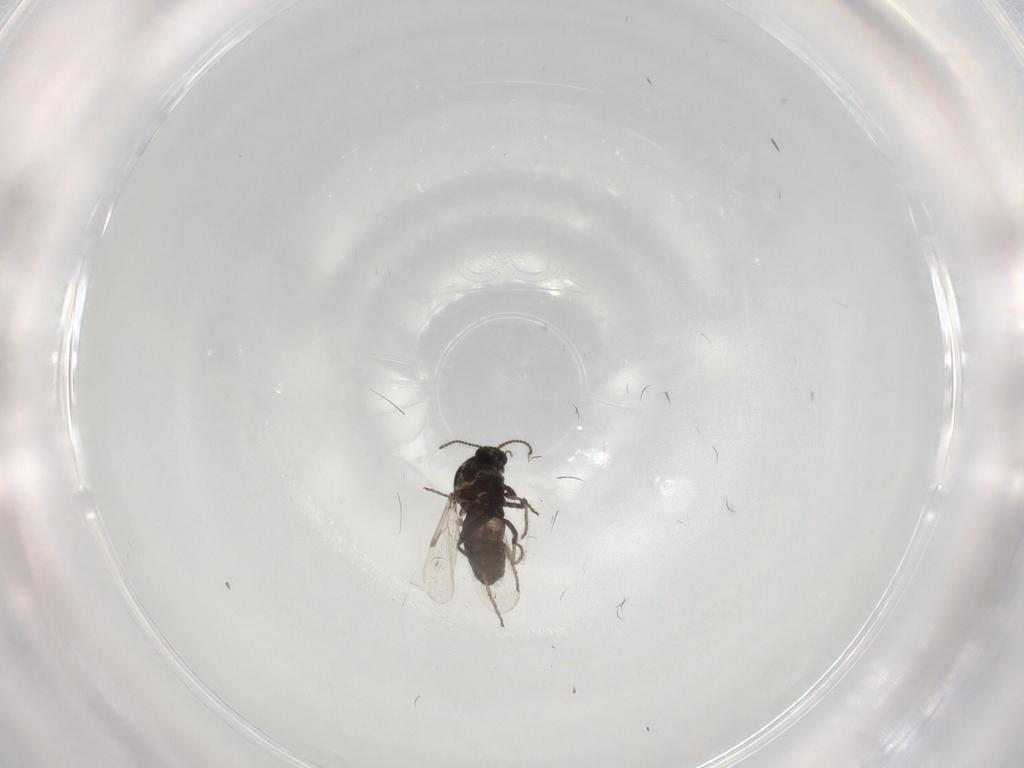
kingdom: Animalia
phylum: Arthropoda
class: Insecta
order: Diptera
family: Ceratopogonidae
